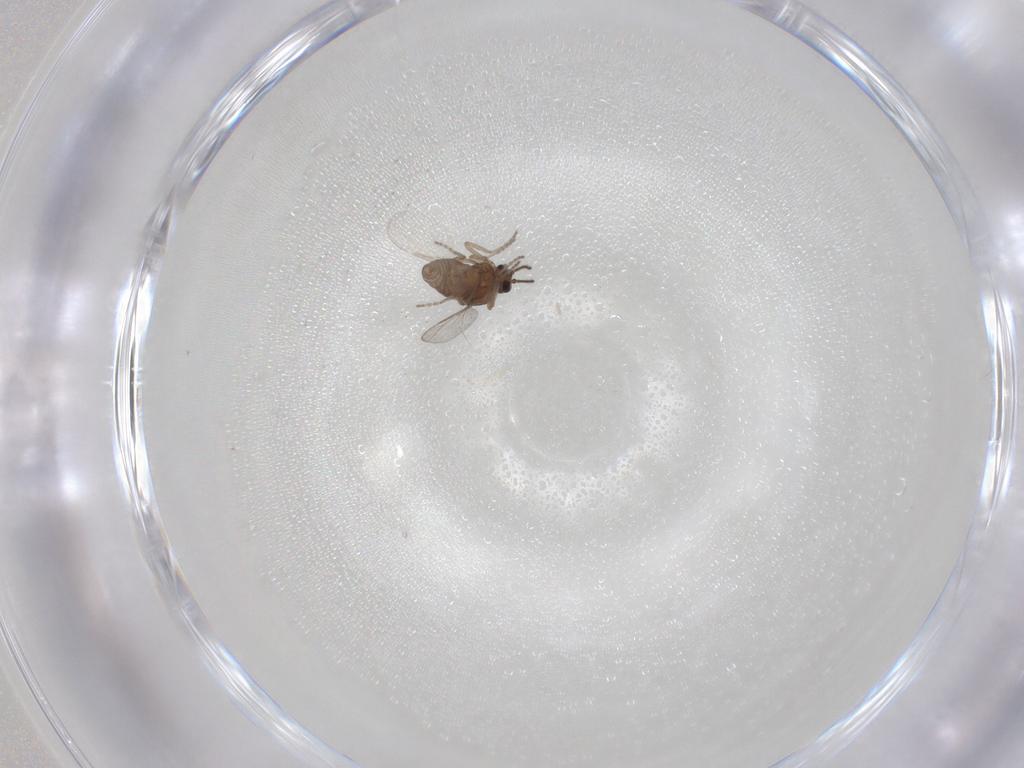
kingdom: Animalia
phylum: Arthropoda
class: Insecta
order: Diptera
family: Ceratopogonidae
